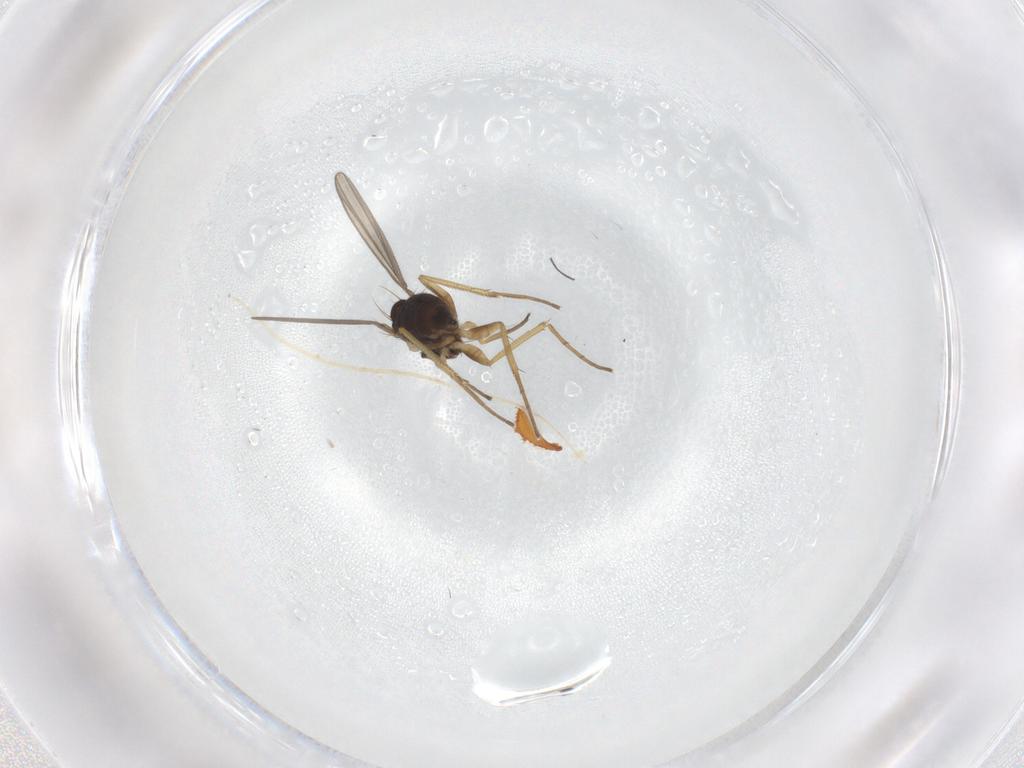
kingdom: Animalia
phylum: Arthropoda
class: Insecta
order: Diptera
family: Dolichopodidae
